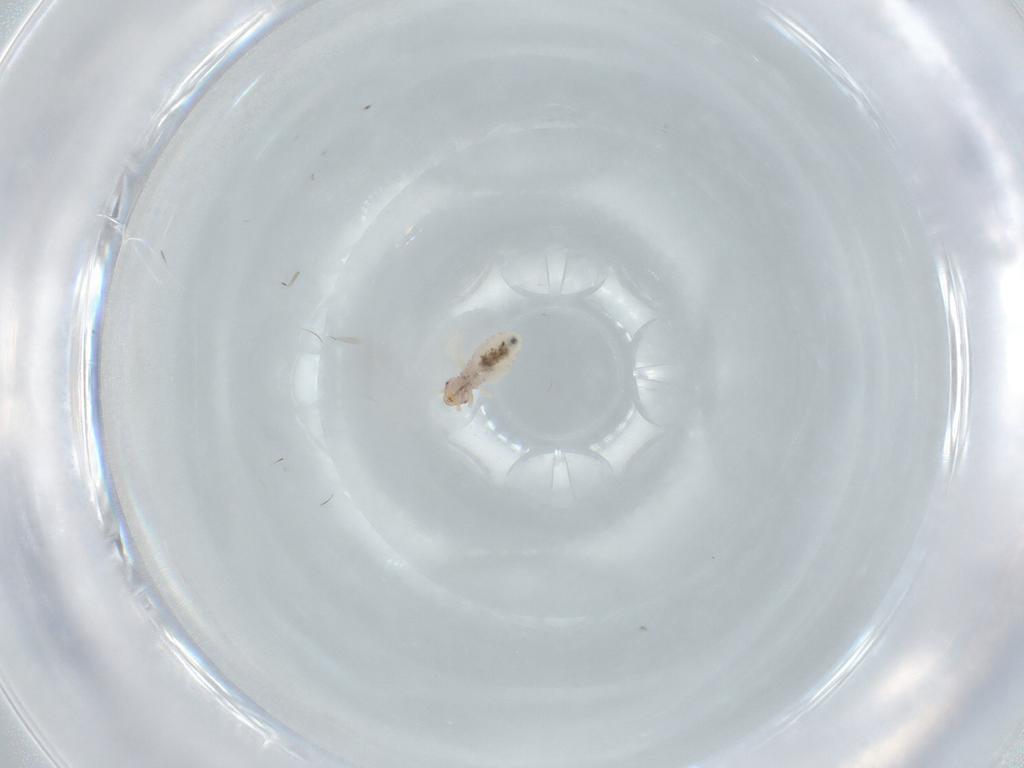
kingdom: Animalia
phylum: Arthropoda
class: Insecta
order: Psocodea
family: Liposcelididae
